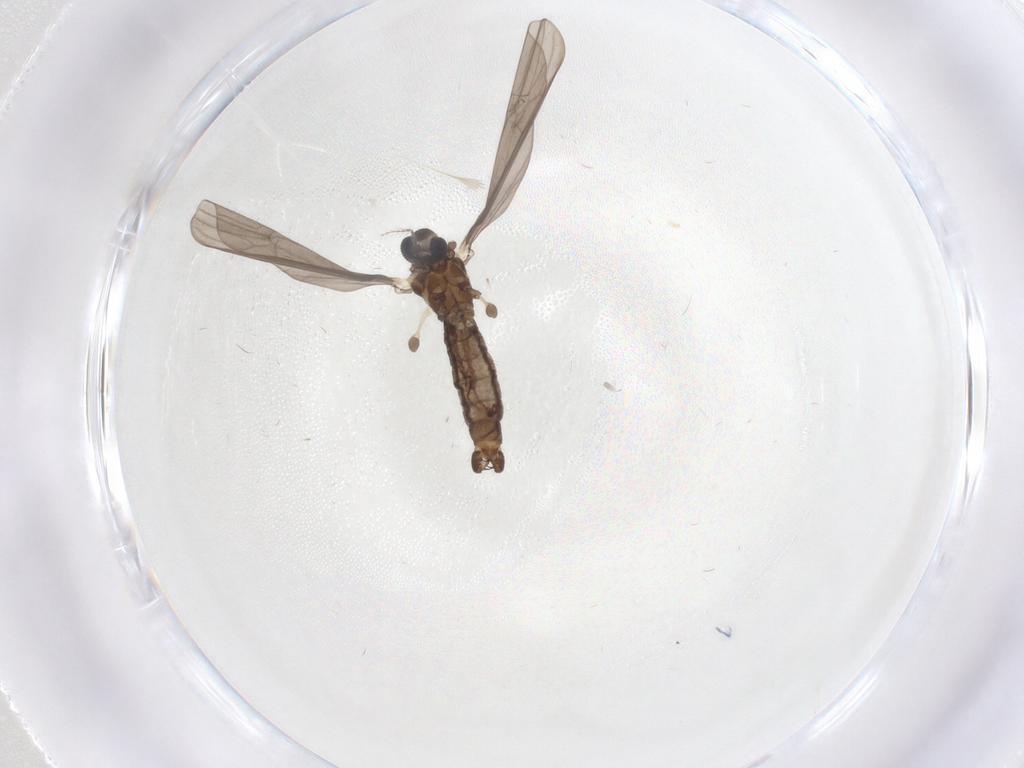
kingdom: Animalia
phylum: Arthropoda
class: Insecta
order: Diptera
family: Limoniidae
